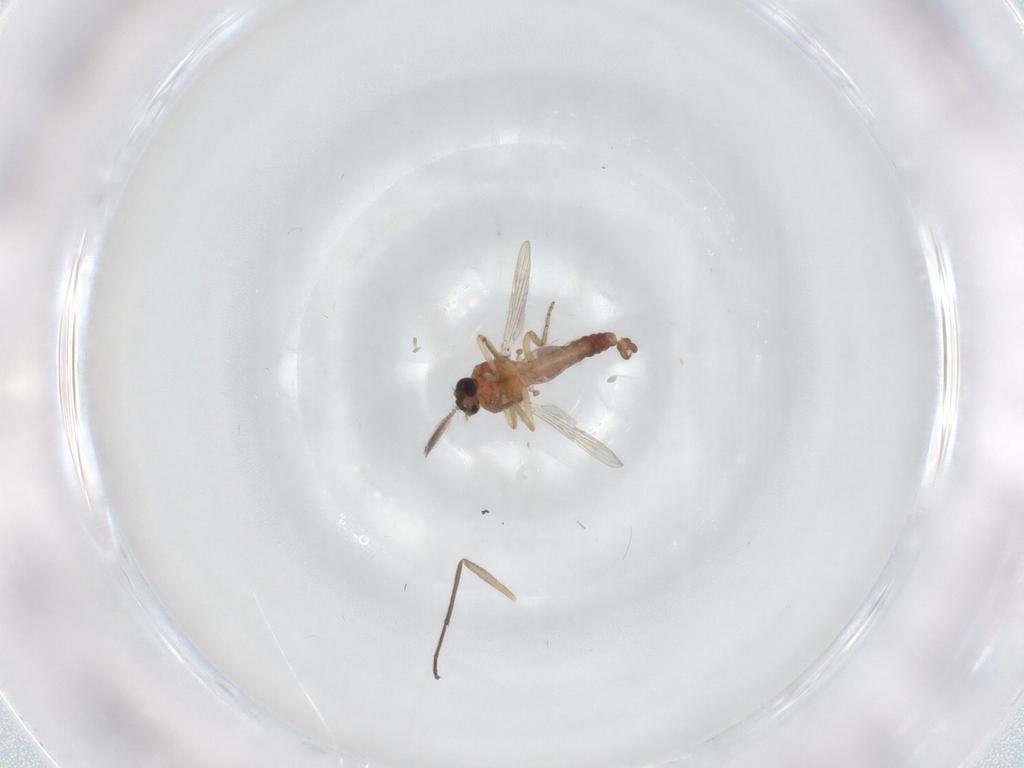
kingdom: Animalia
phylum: Arthropoda
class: Insecta
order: Diptera
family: Ceratopogonidae
